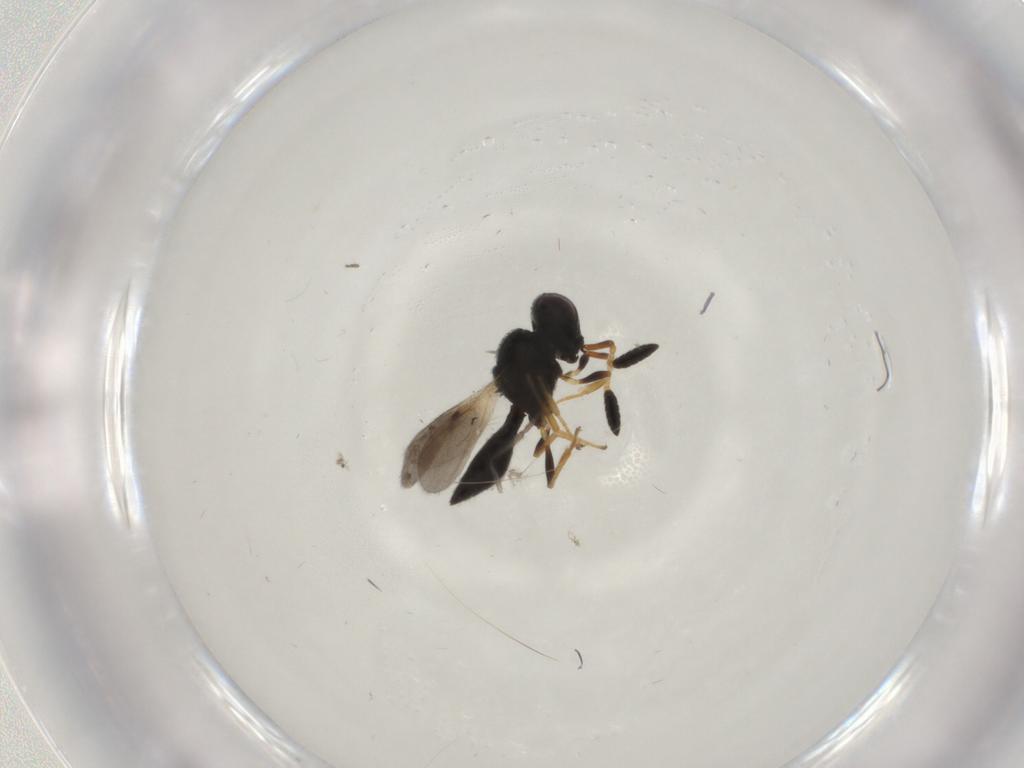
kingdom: Animalia
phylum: Arthropoda
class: Insecta
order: Hymenoptera
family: Scelionidae
